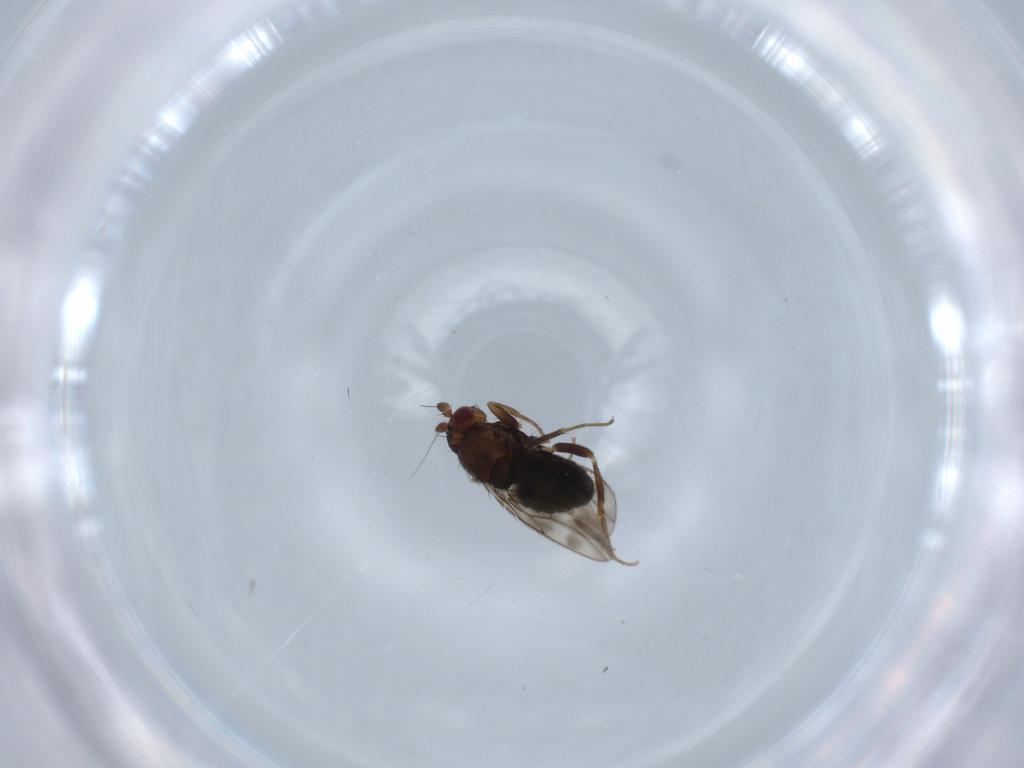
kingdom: Animalia
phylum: Arthropoda
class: Insecta
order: Diptera
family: Sphaeroceridae
